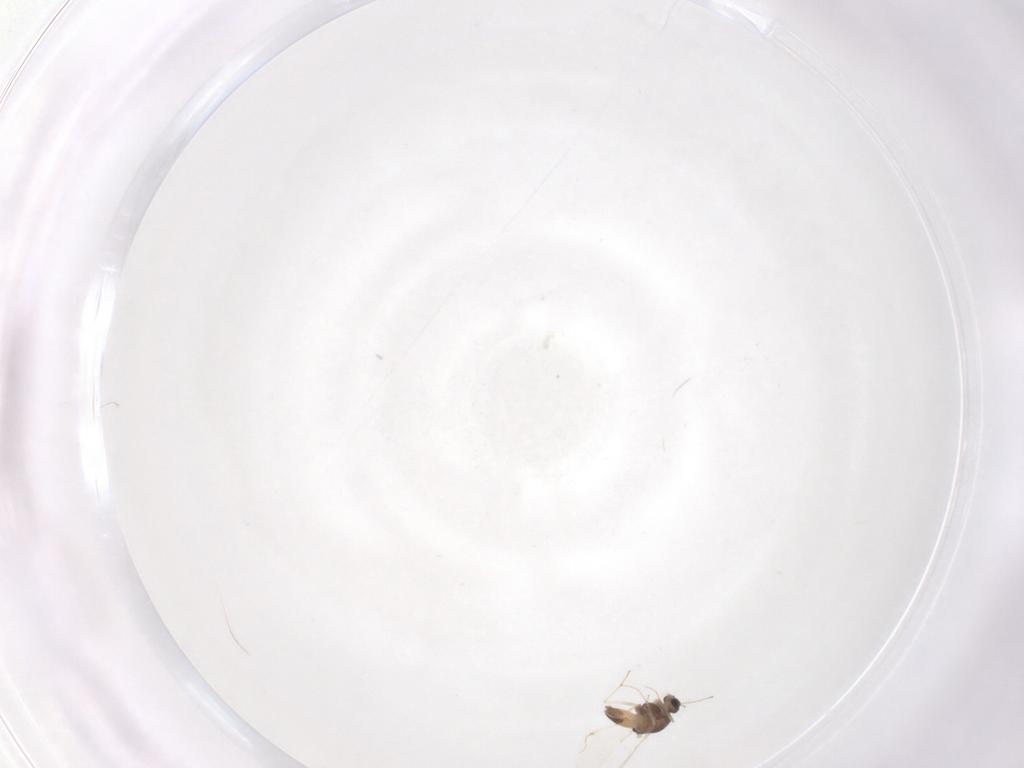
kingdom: Animalia
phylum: Arthropoda
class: Insecta
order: Diptera
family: Chironomidae
